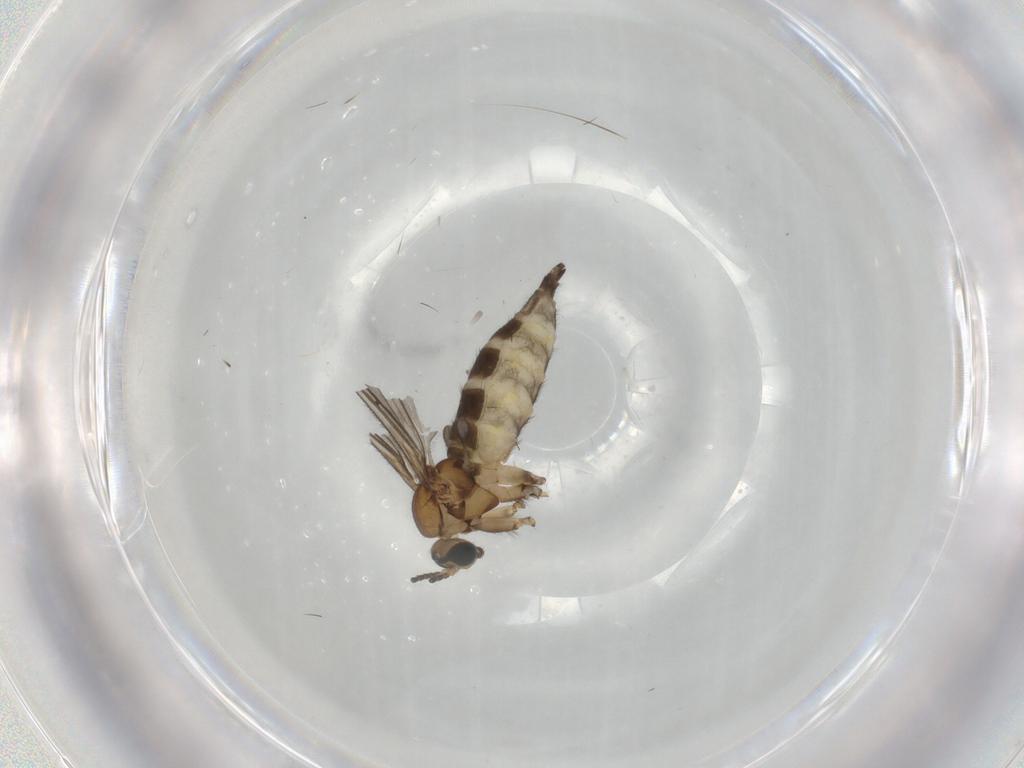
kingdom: Animalia
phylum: Arthropoda
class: Insecta
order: Diptera
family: Sciaridae
